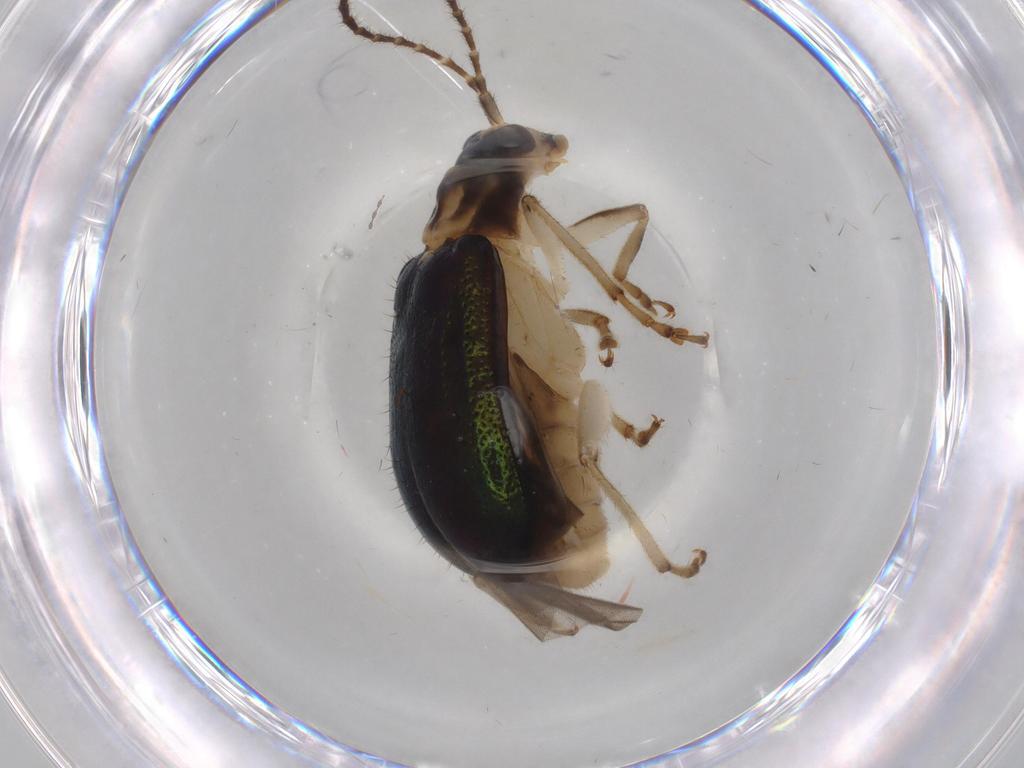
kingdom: Animalia
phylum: Arthropoda
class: Insecta
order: Coleoptera
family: Chrysomelidae
